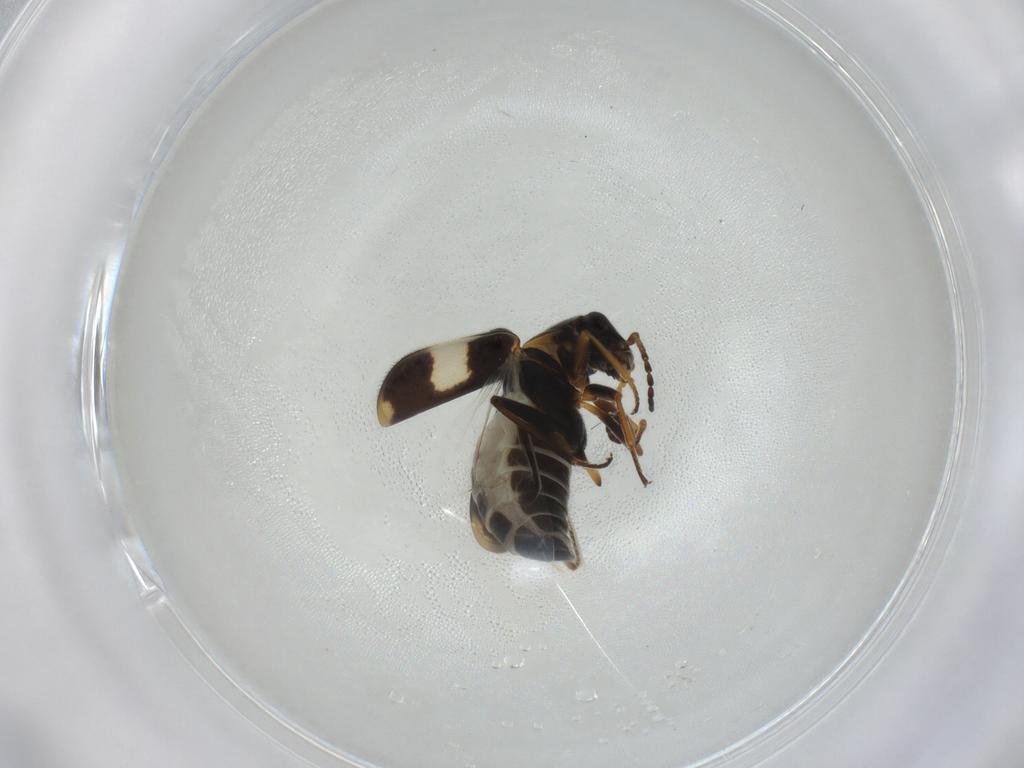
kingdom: Animalia
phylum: Arthropoda
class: Insecta
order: Coleoptera
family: Melyridae
